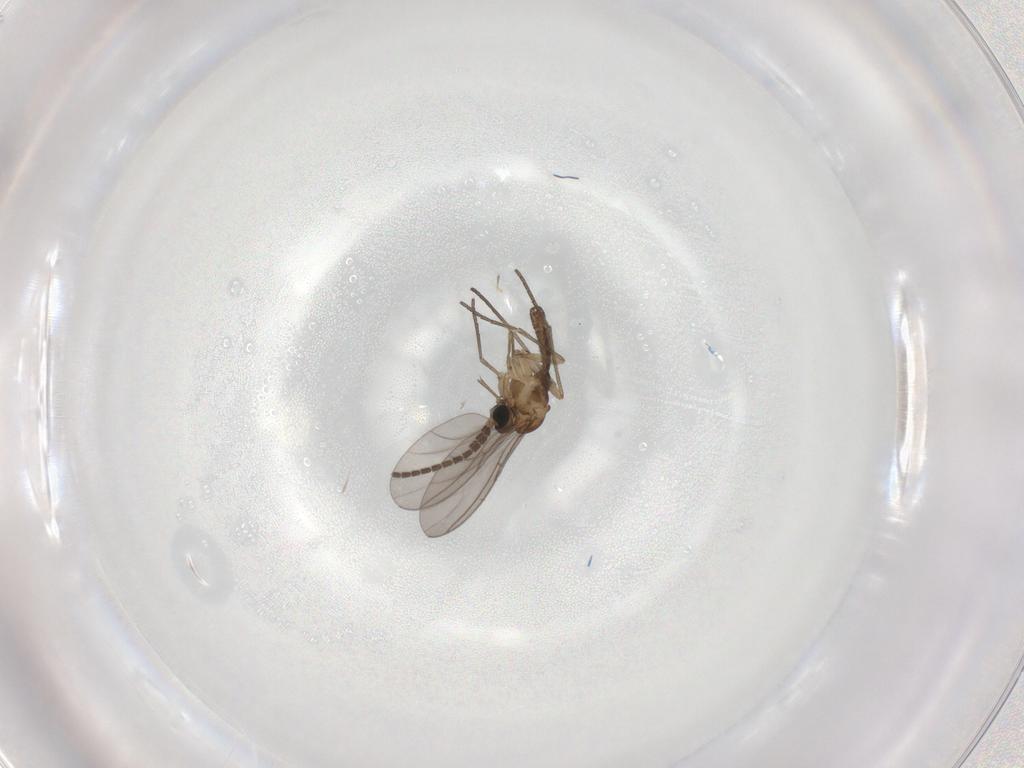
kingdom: Animalia
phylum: Arthropoda
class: Insecta
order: Diptera
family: Sciaridae
